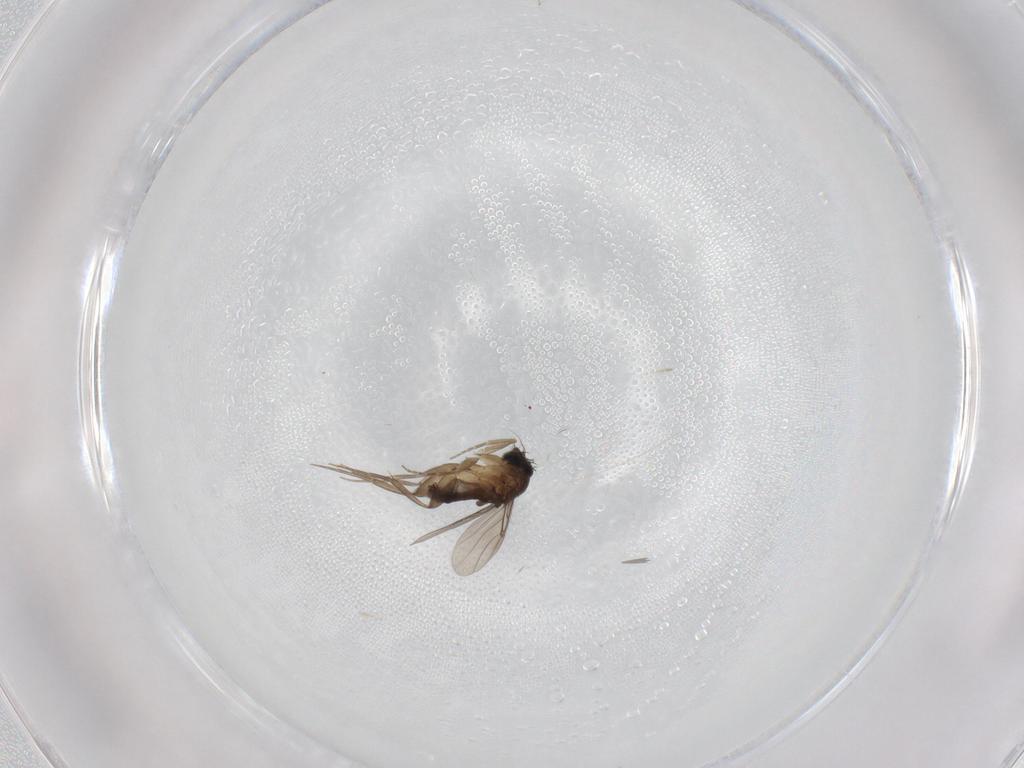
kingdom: Animalia
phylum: Arthropoda
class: Insecta
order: Diptera
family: Phoridae
